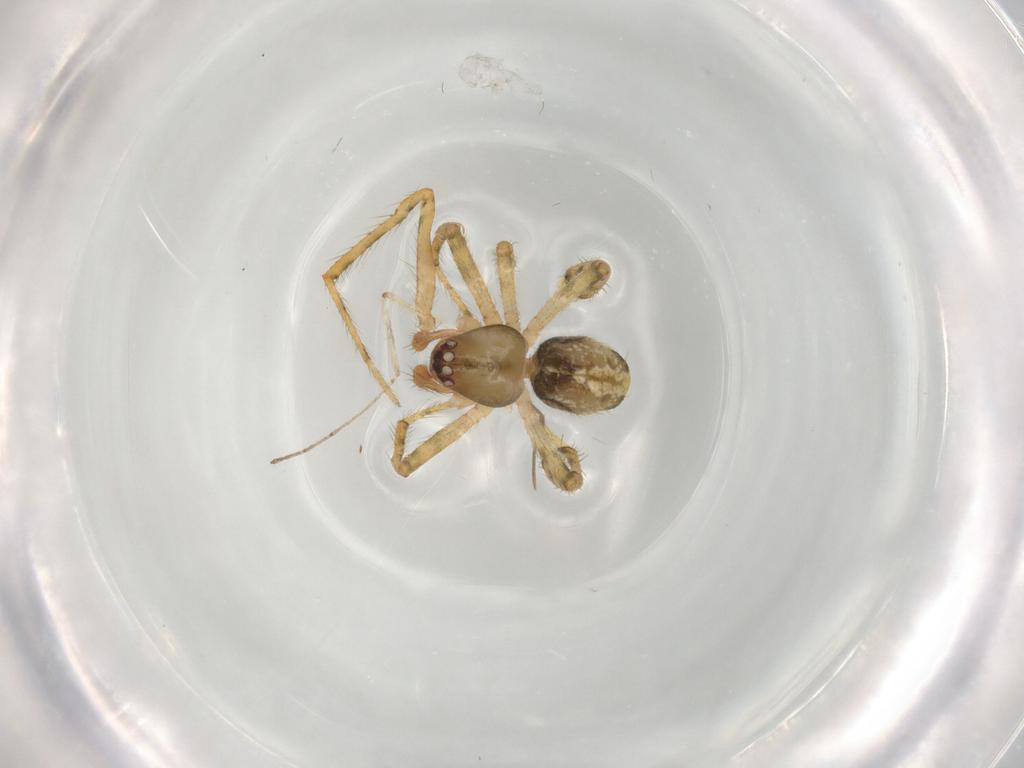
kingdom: Animalia
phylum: Arthropoda
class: Arachnida
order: Araneae
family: Theridiidae
